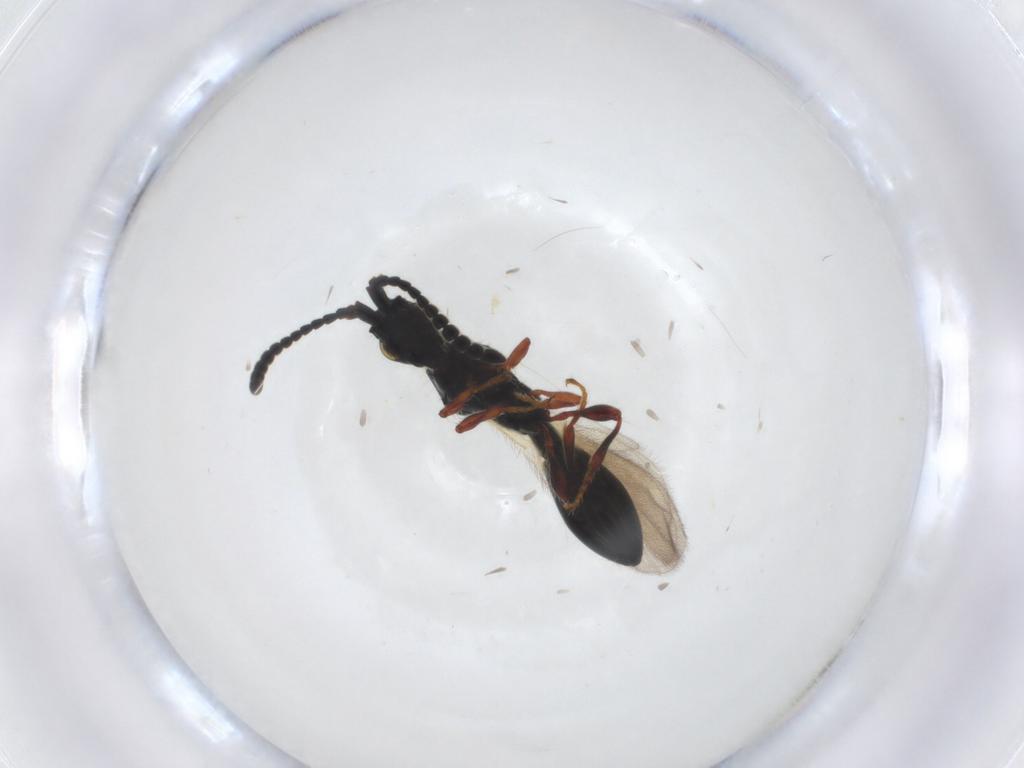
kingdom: Animalia
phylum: Arthropoda
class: Insecta
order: Hymenoptera
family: Diapriidae
